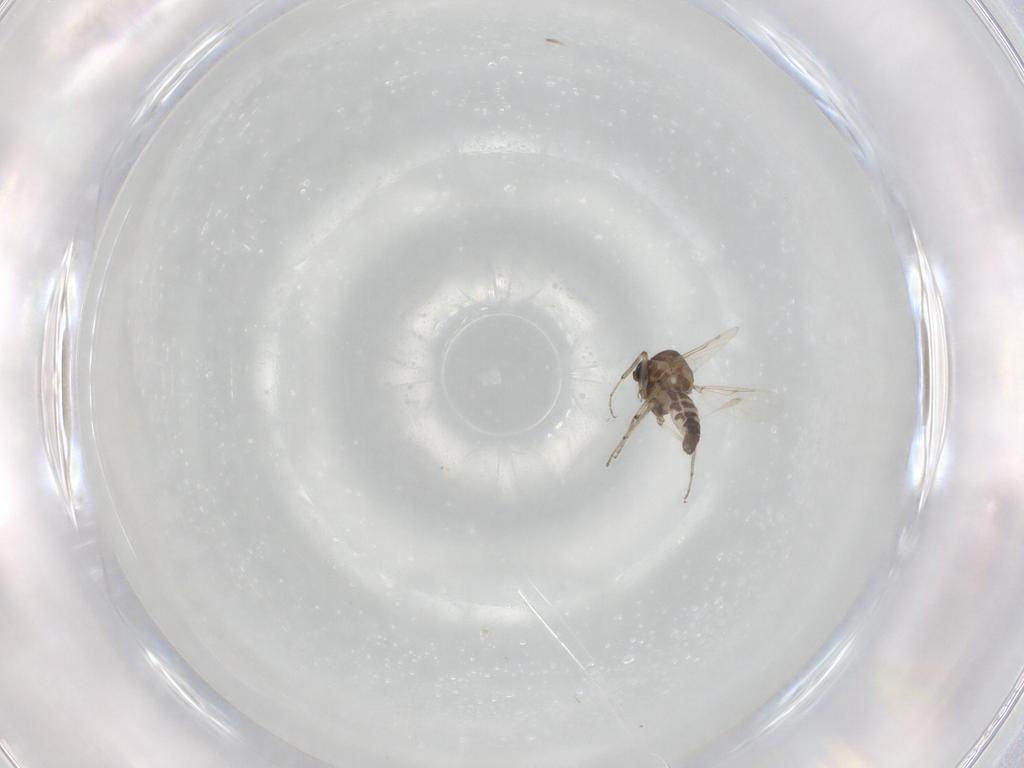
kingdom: Animalia
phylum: Arthropoda
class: Insecta
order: Diptera
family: Ceratopogonidae
